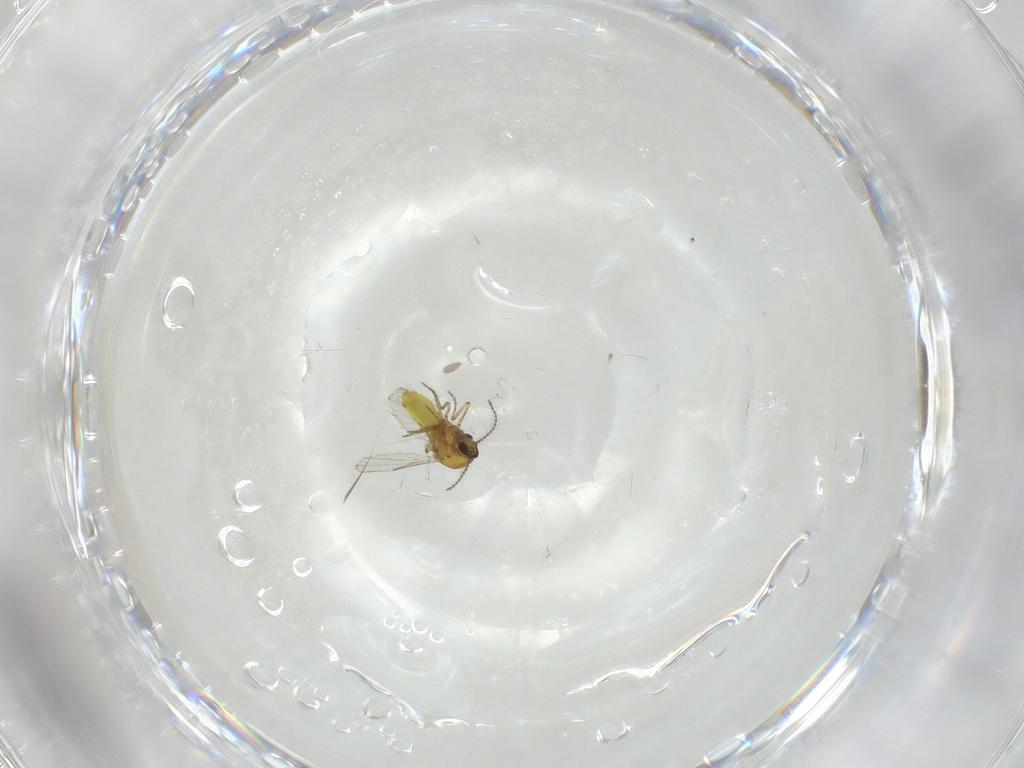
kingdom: Animalia
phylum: Arthropoda
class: Insecta
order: Diptera
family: Ceratopogonidae
